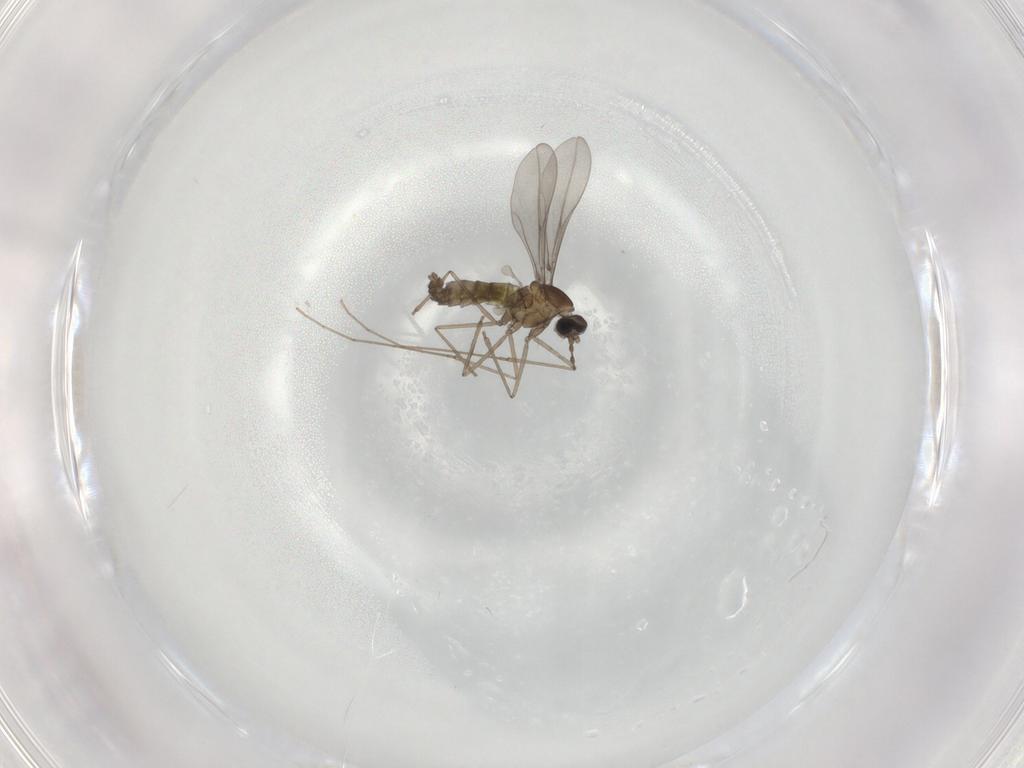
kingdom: Animalia
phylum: Arthropoda
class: Insecta
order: Diptera
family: Cecidomyiidae
